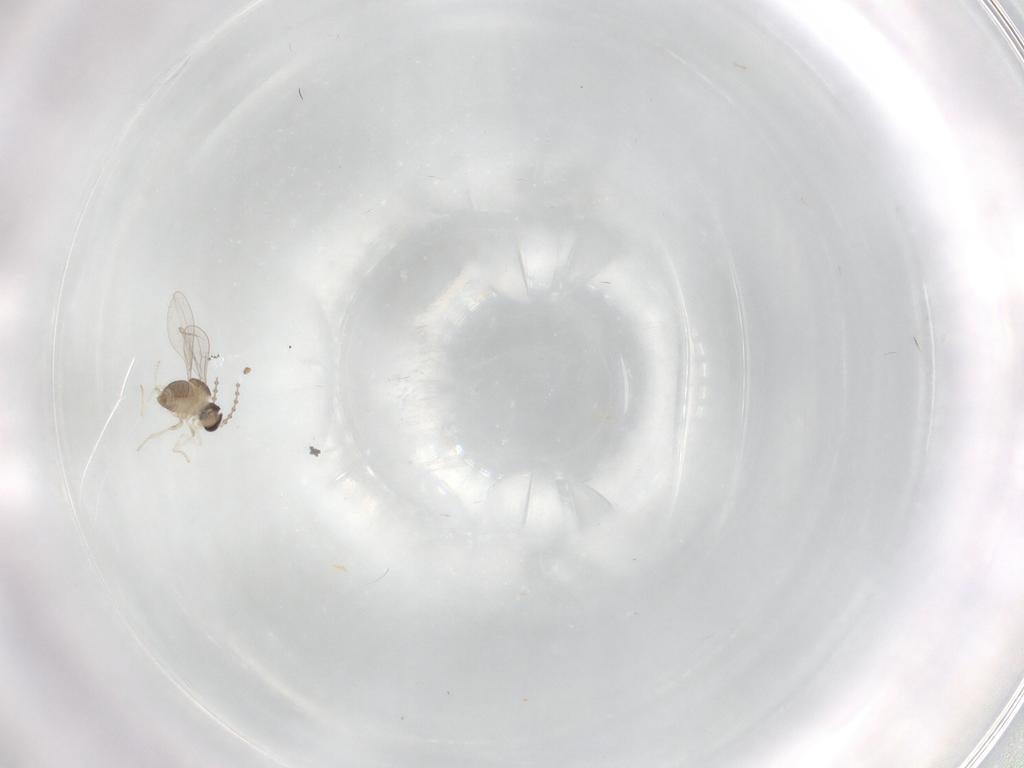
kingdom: Animalia
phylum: Arthropoda
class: Insecta
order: Diptera
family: Cecidomyiidae
